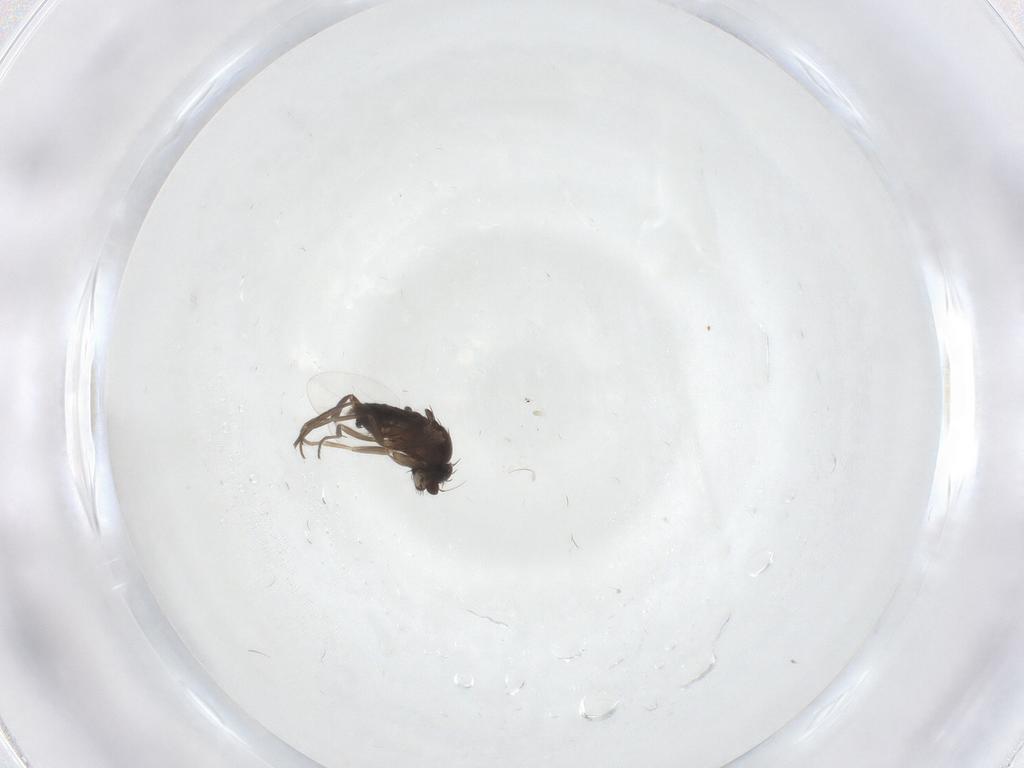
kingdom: Animalia
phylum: Arthropoda
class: Insecta
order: Diptera
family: Phoridae
